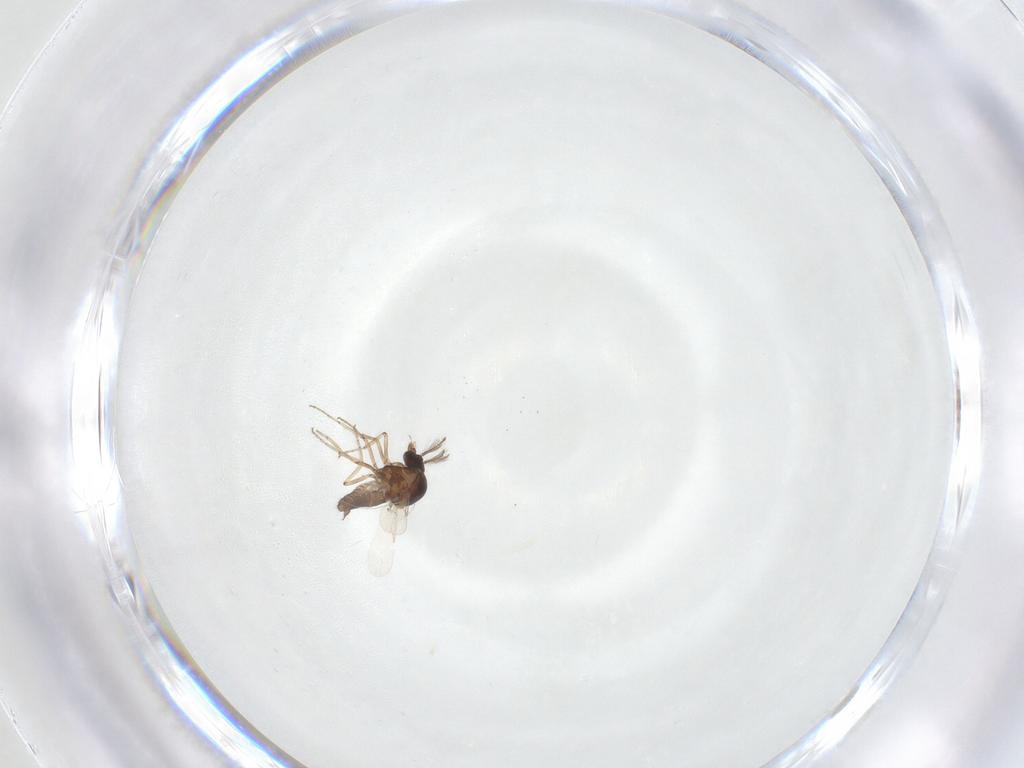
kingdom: Animalia
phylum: Arthropoda
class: Insecta
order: Diptera
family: Ceratopogonidae
